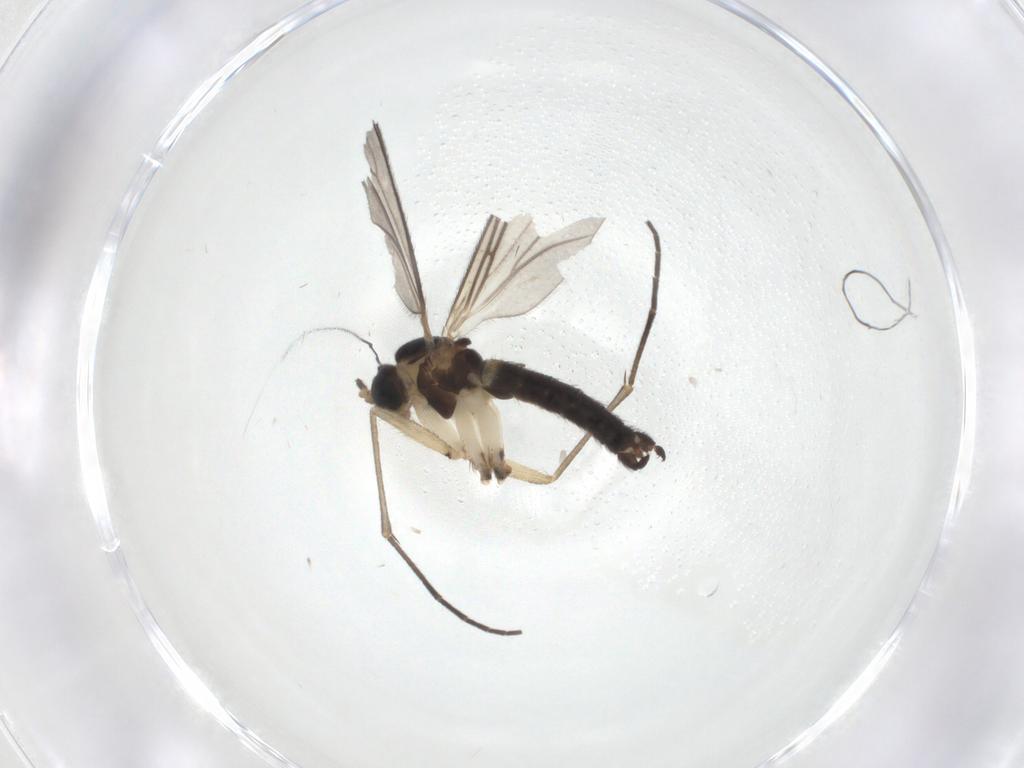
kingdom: Animalia
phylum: Arthropoda
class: Insecta
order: Diptera
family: Sciaridae
